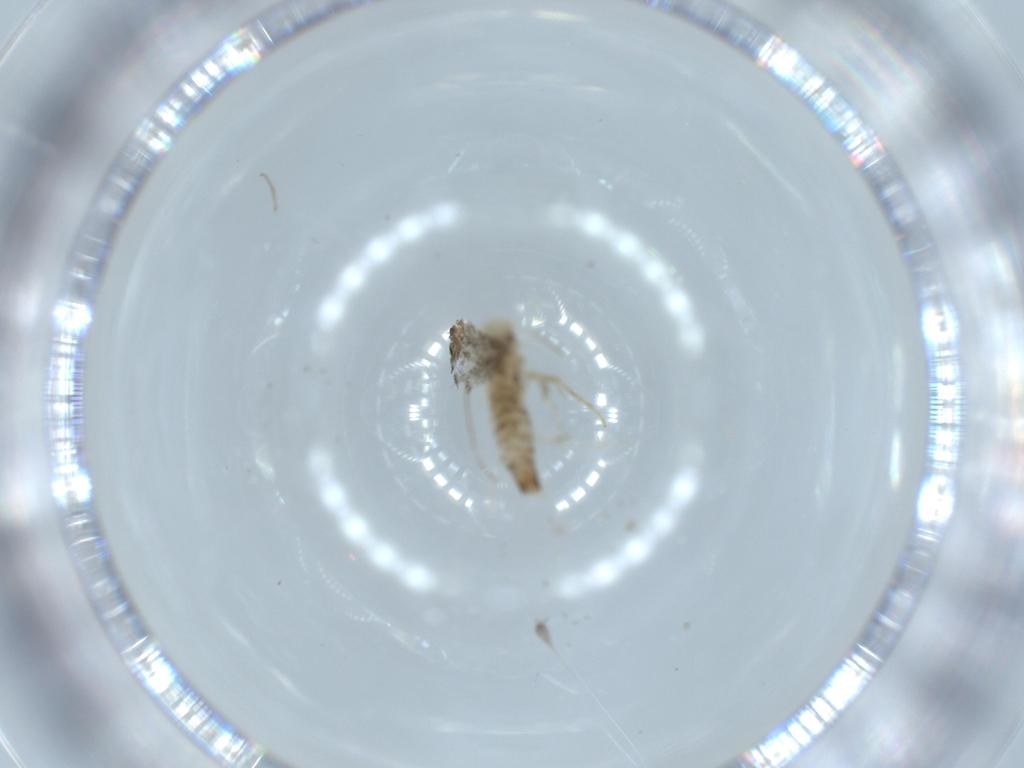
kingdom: Animalia
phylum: Arthropoda
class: Insecta
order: Lepidoptera
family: Gracillariidae
